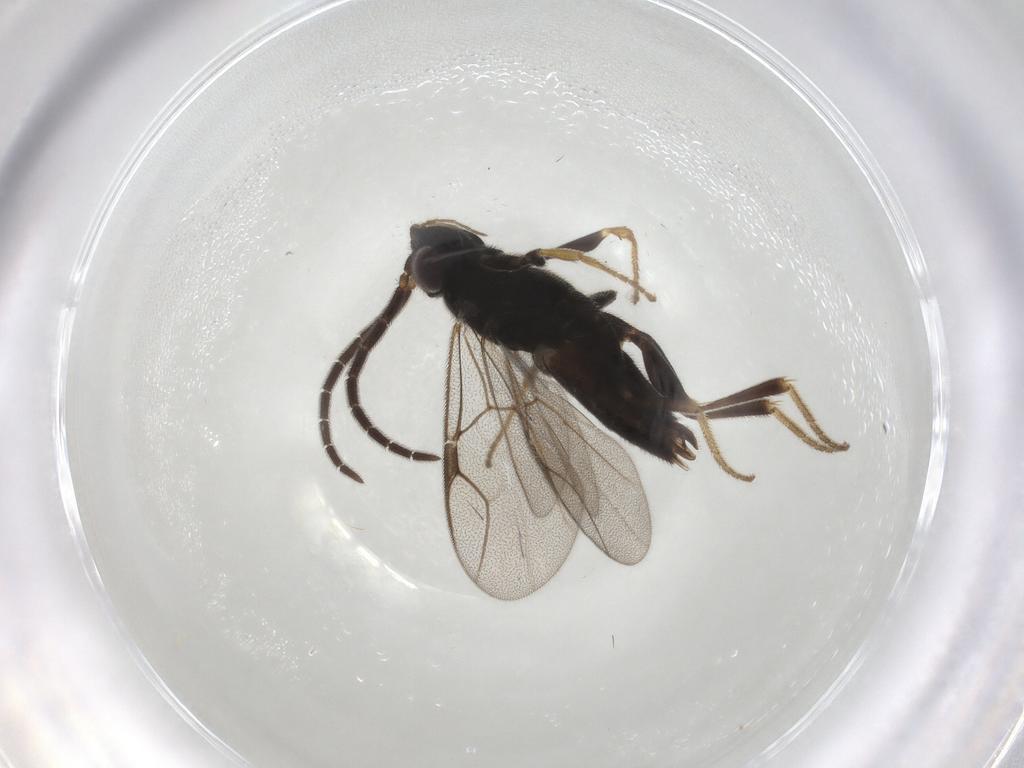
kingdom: Animalia
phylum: Arthropoda
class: Insecta
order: Hymenoptera
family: Dryinidae
